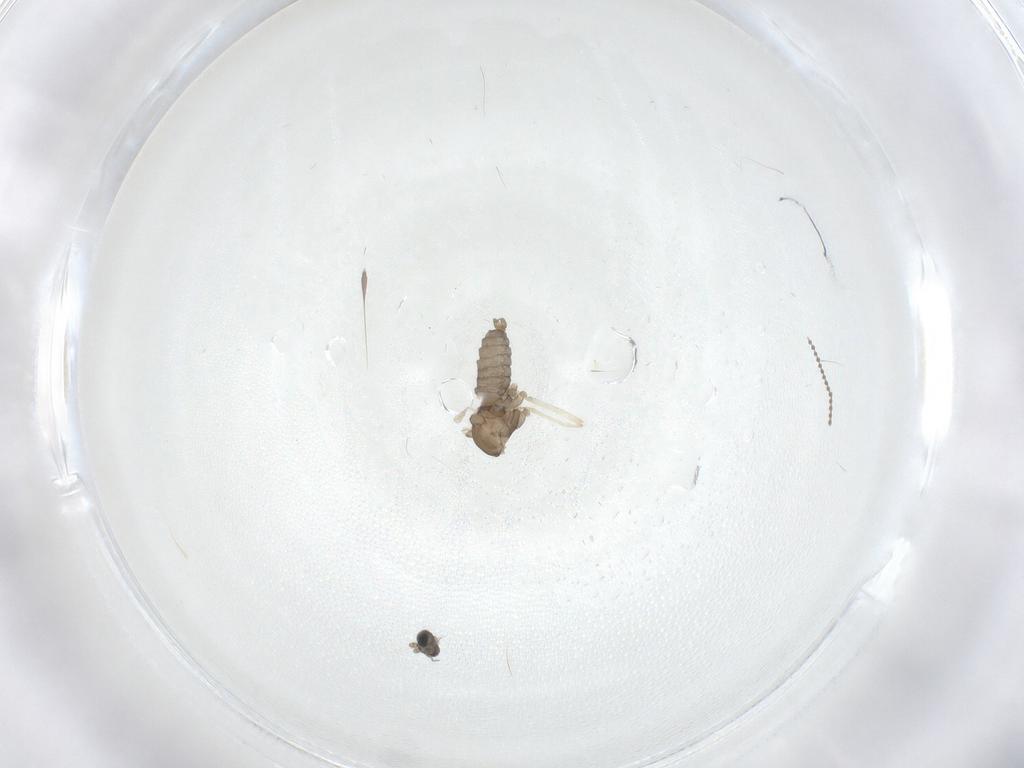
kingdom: Animalia
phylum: Arthropoda
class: Insecta
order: Diptera
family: Cecidomyiidae
